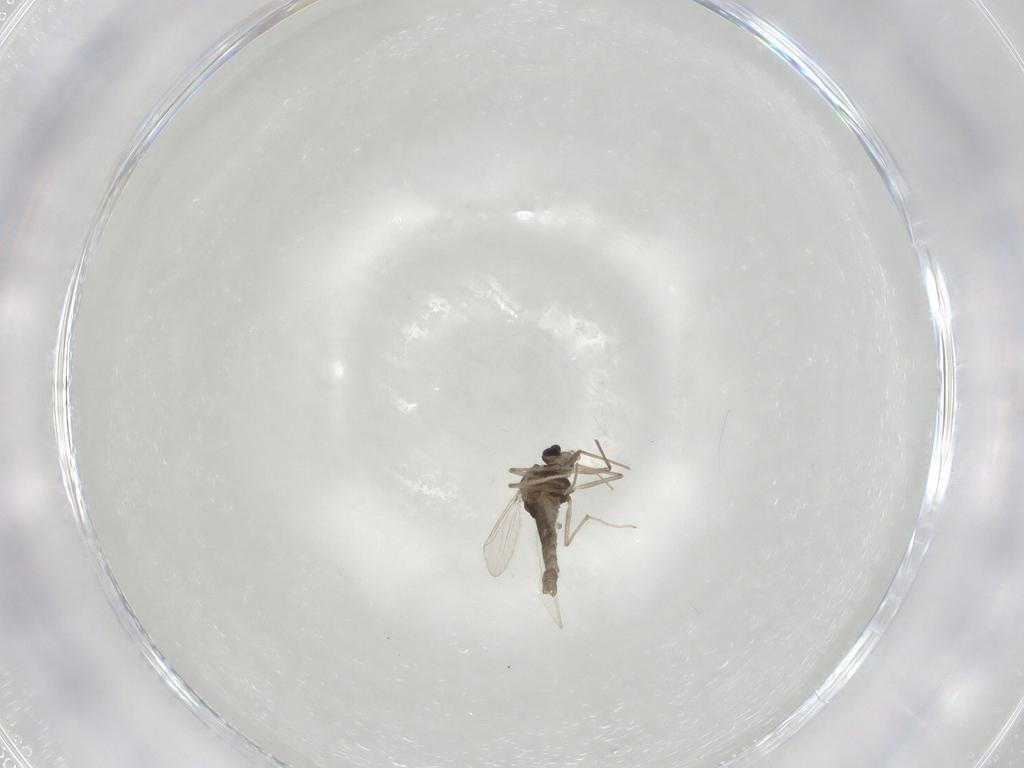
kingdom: Animalia
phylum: Arthropoda
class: Insecta
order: Diptera
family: Chironomidae
